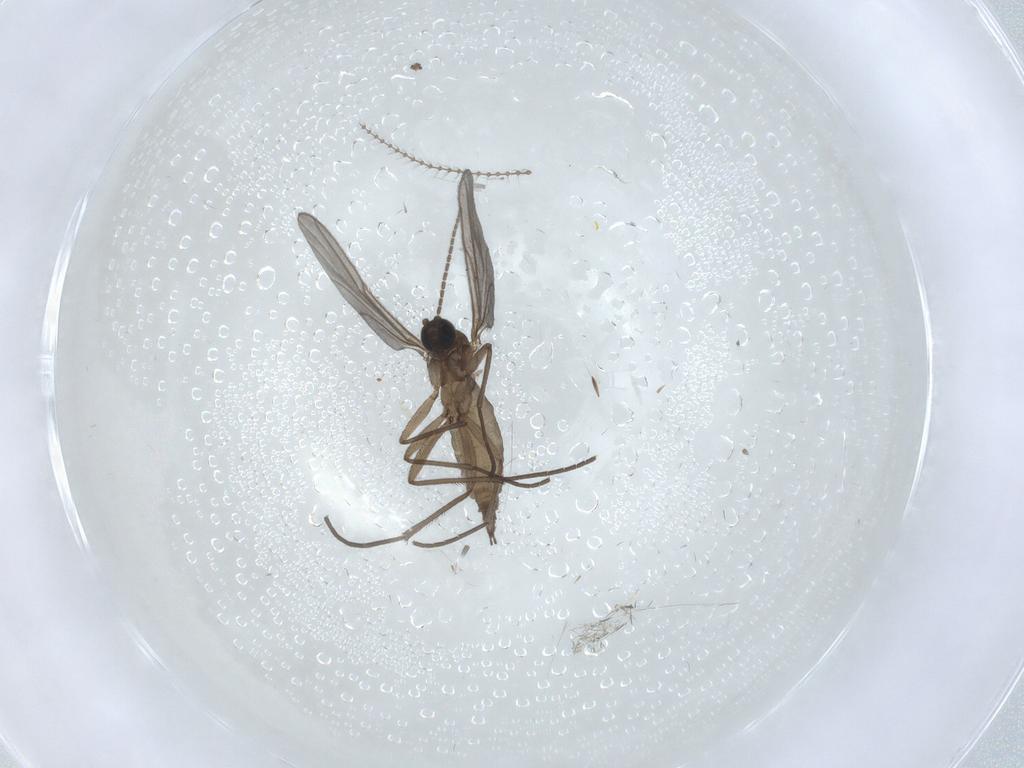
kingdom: Animalia
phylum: Arthropoda
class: Insecta
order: Diptera
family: Sciaridae
